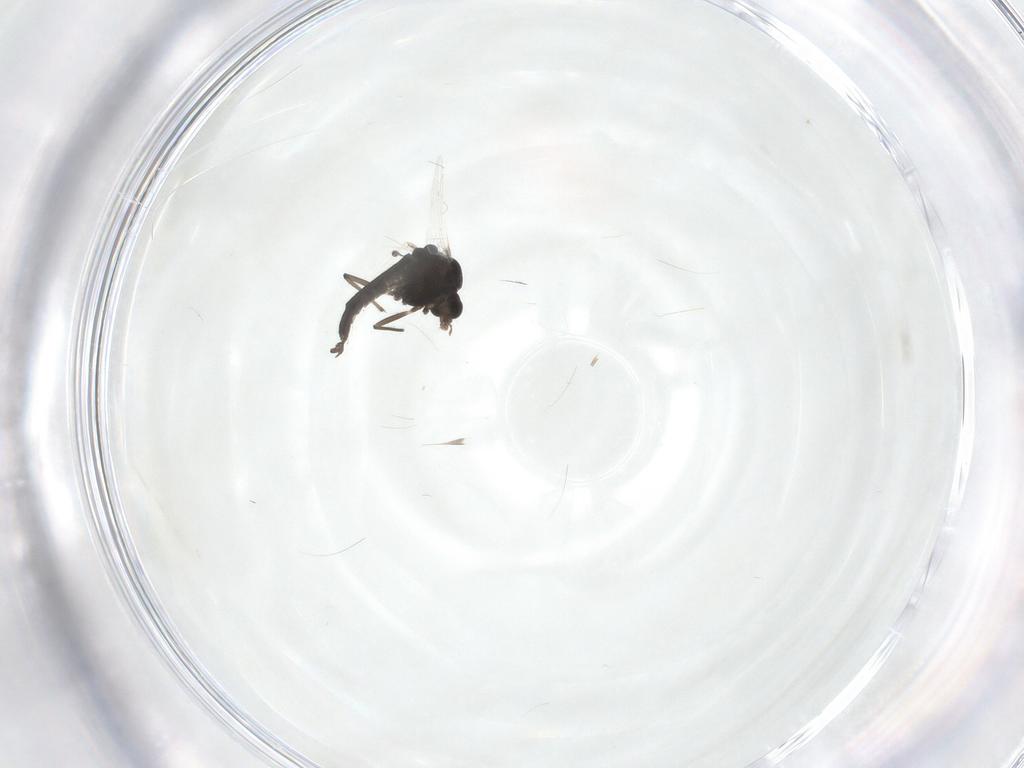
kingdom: Animalia
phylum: Arthropoda
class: Insecta
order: Diptera
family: Chironomidae
